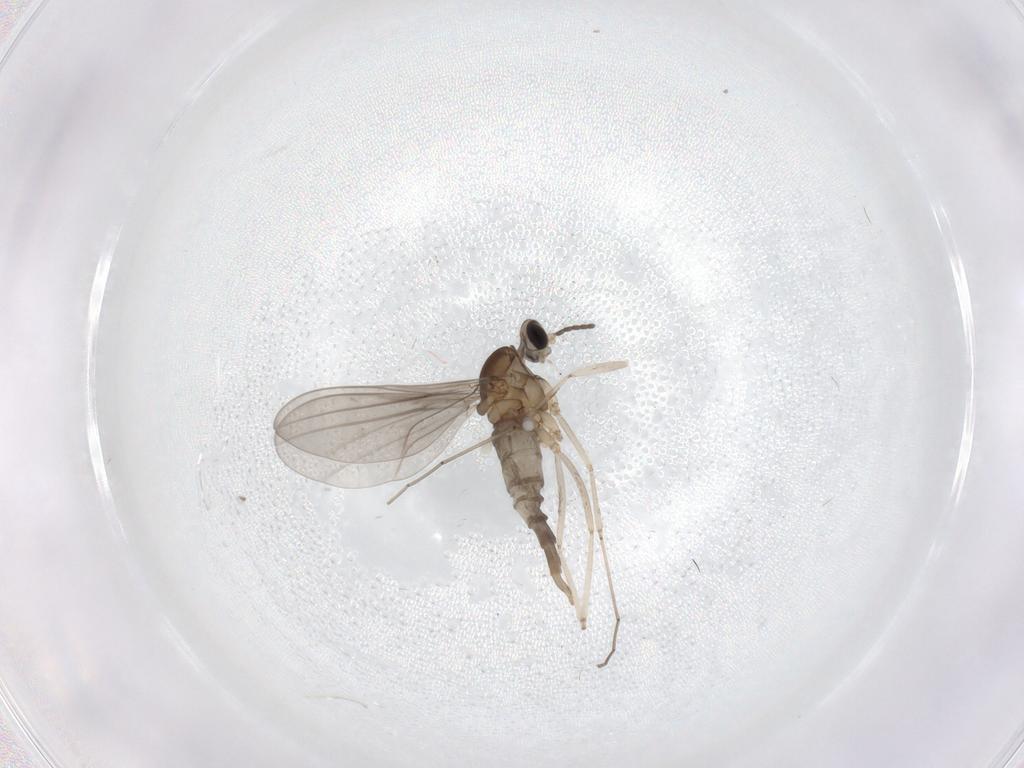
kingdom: Animalia
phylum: Arthropoda
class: Insecta
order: Diptera
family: Cecidomyiidae
